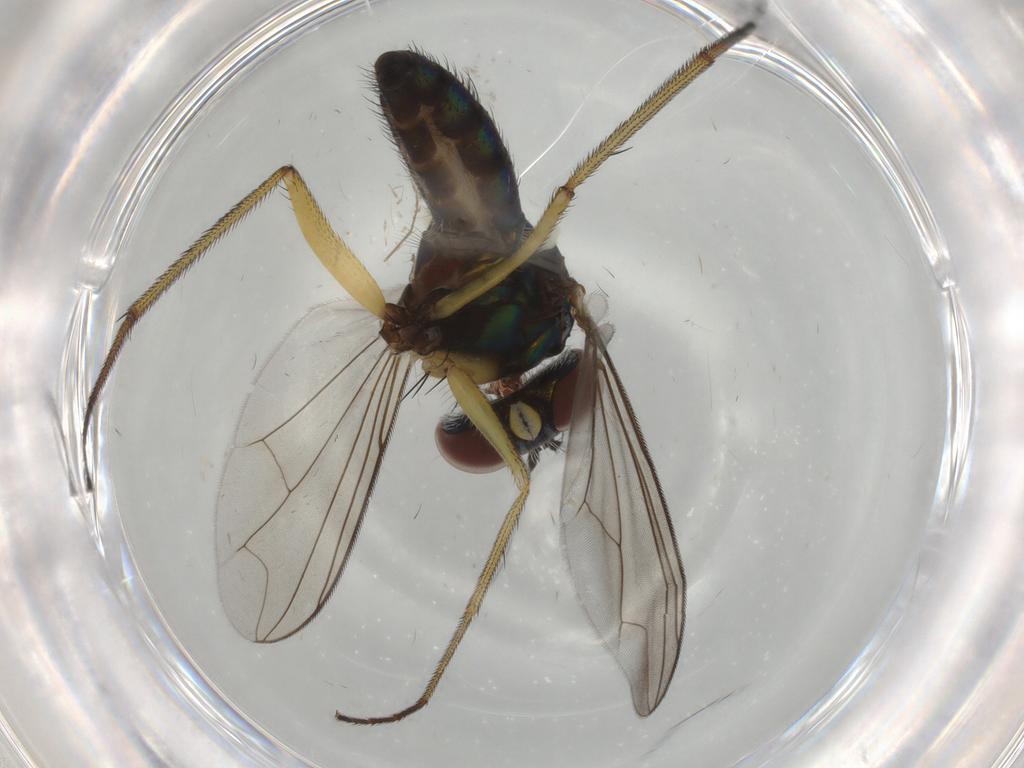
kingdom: Animalia
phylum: Arthropoda
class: Insecta
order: Diptera
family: Dolichopodidae
